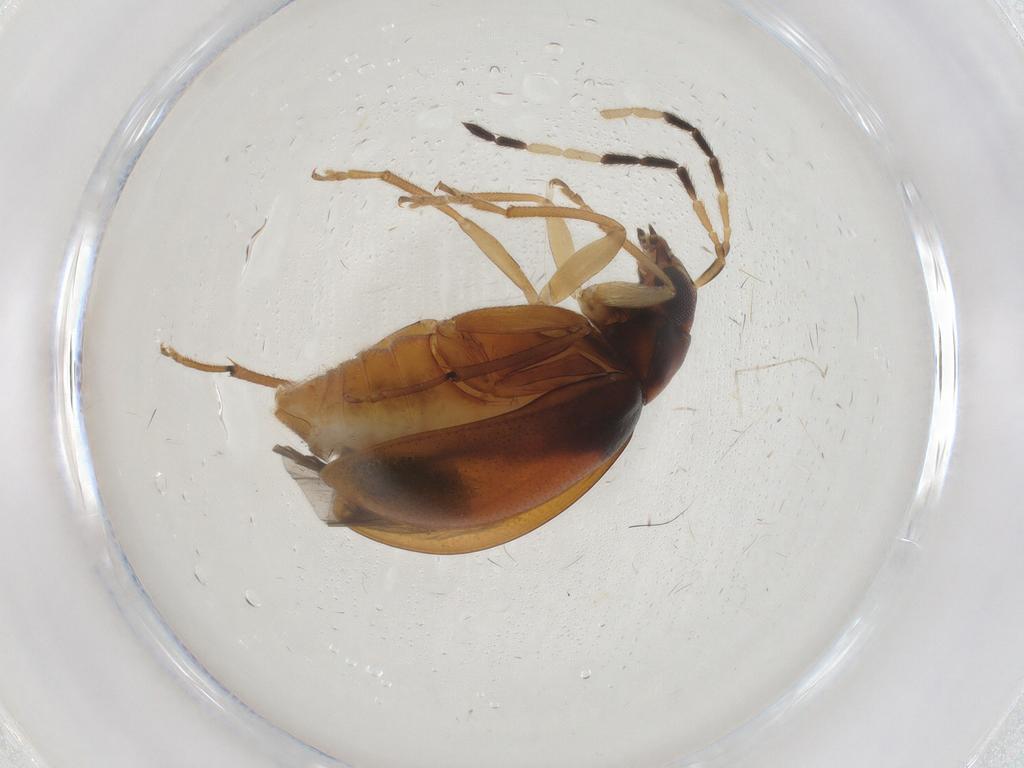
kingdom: Animalia
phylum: Arthropoda
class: Insecta
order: Coleoptera
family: Chrysomelidae
